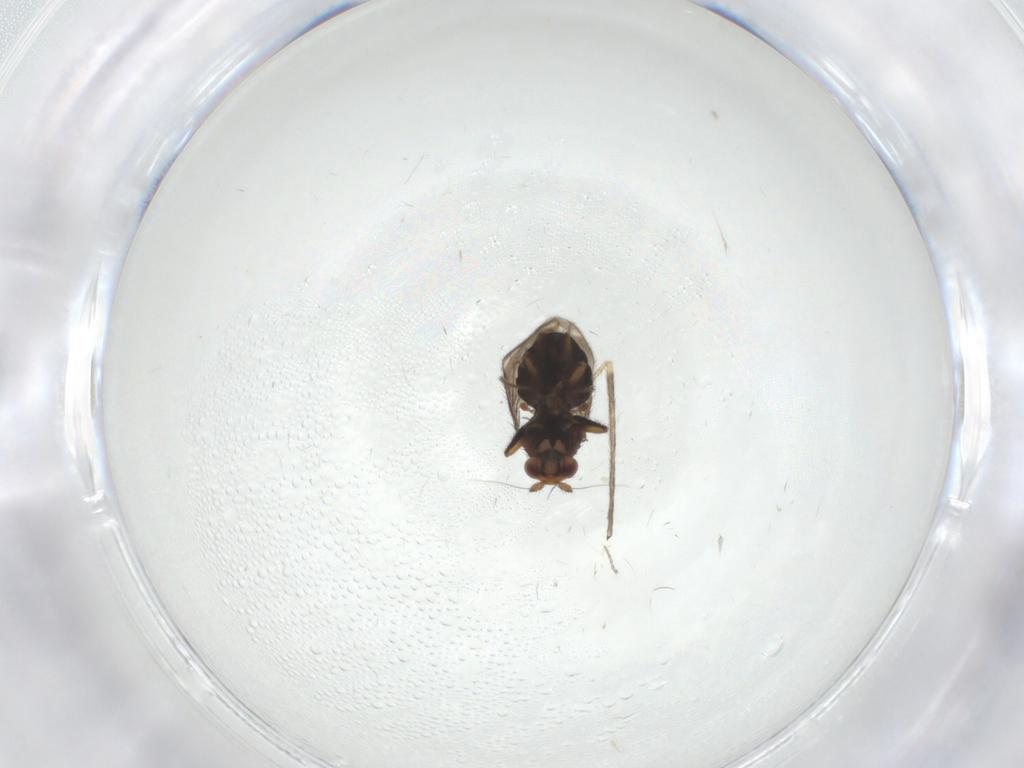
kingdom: Animalia
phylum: Arthropoda
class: Insecta
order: Diptera
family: Sphaeroceridae
